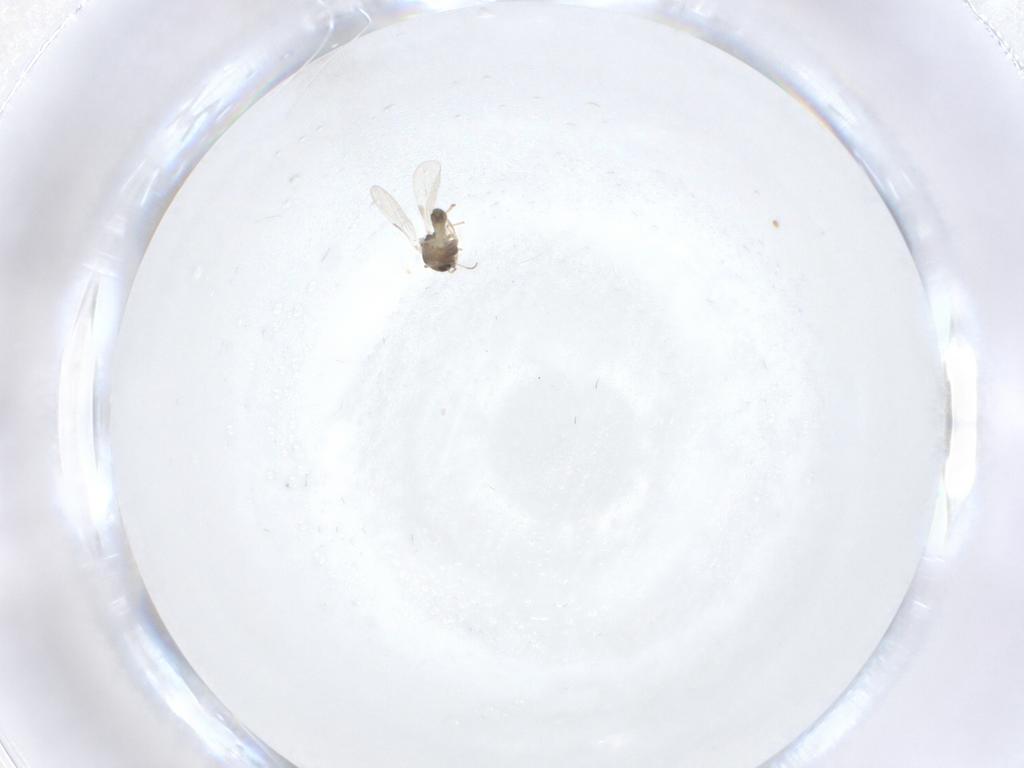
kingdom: Animalia
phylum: Arthropoda
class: Insecta
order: Diptera
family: Chironomidae
